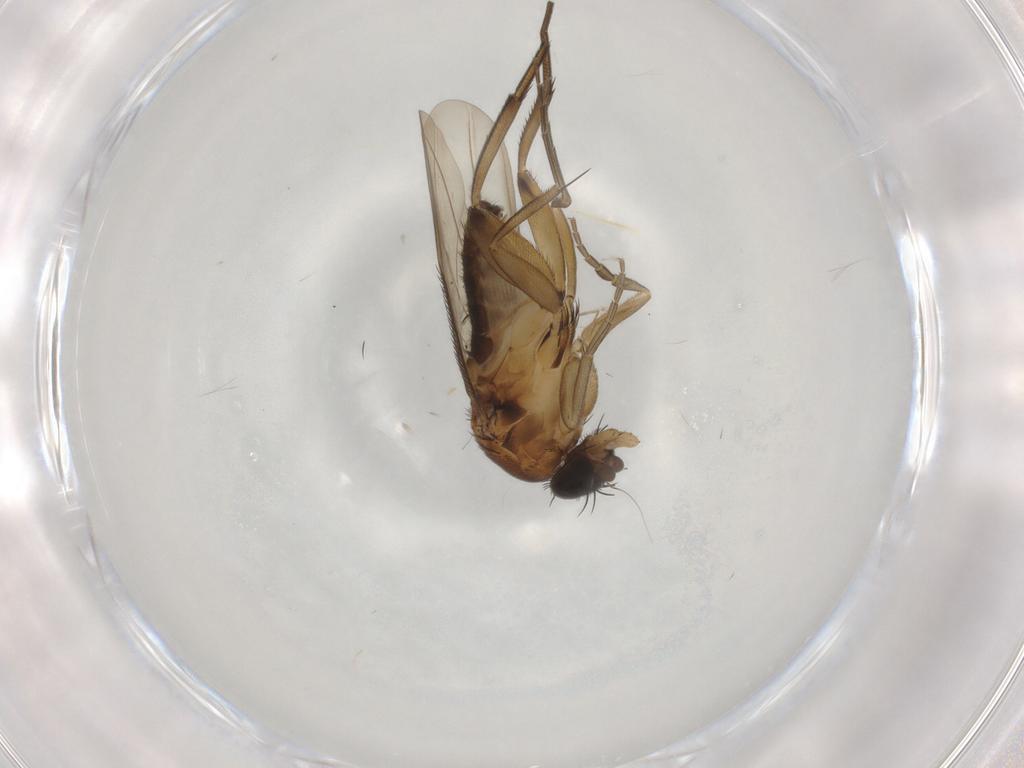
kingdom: Animalia
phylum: Arthropoda
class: Insecta
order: Diptera
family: Phoridae
